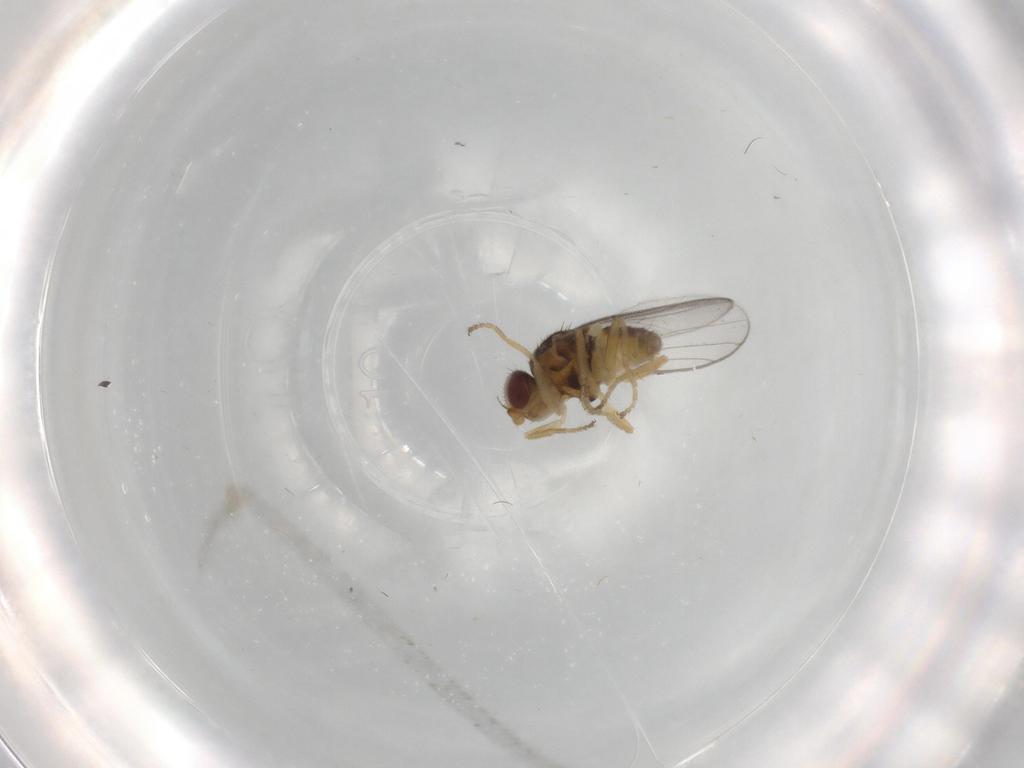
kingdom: Animalia
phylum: Arthropoda
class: Insecta
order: Diptera
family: Chloropidae
